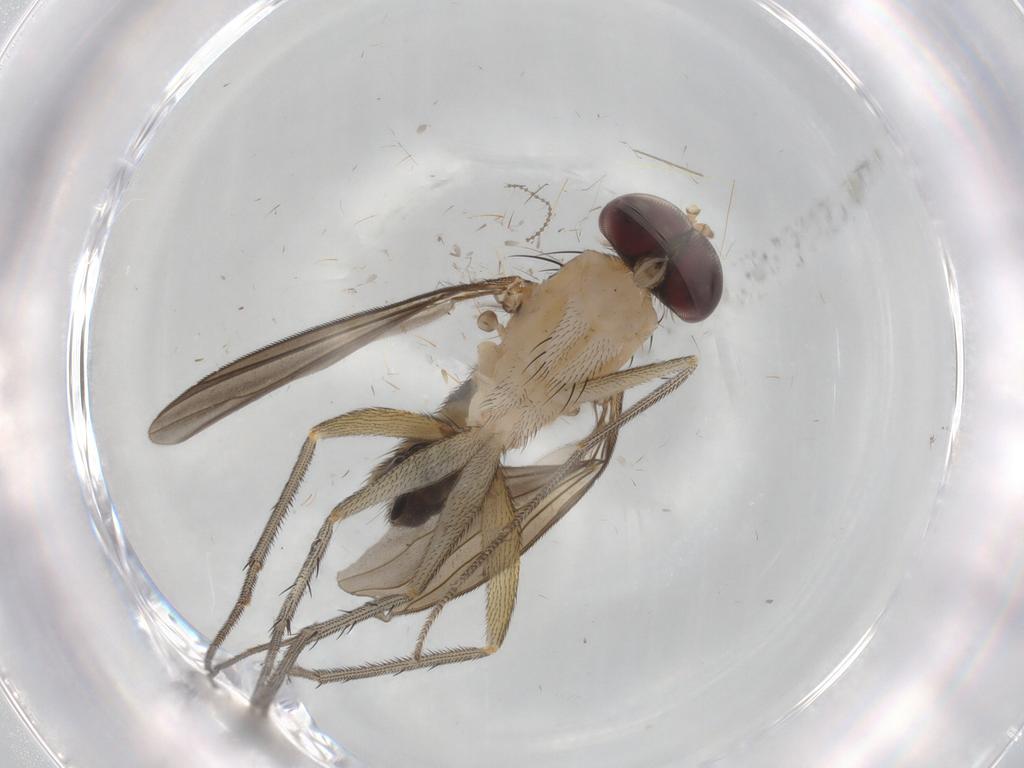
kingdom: Animalia
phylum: Arthropoda
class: Insecta
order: Diptera
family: Dolichopodidae
